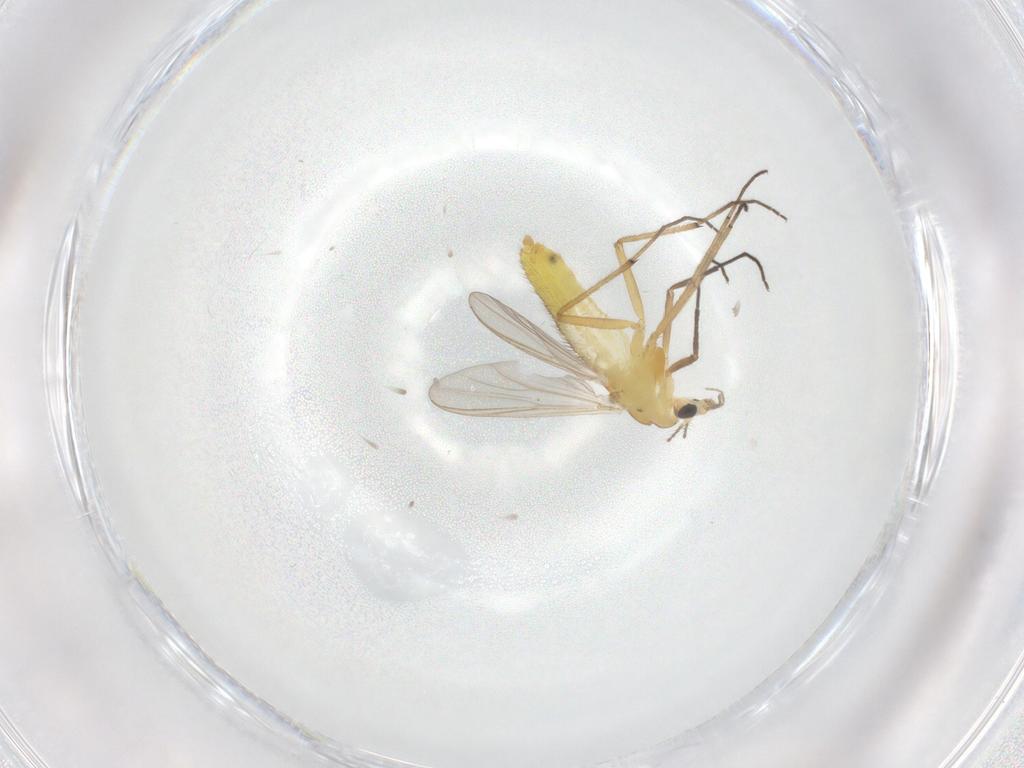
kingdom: Animalia
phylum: Arthropoda
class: Insecta
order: Diptera
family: Chironomidae
